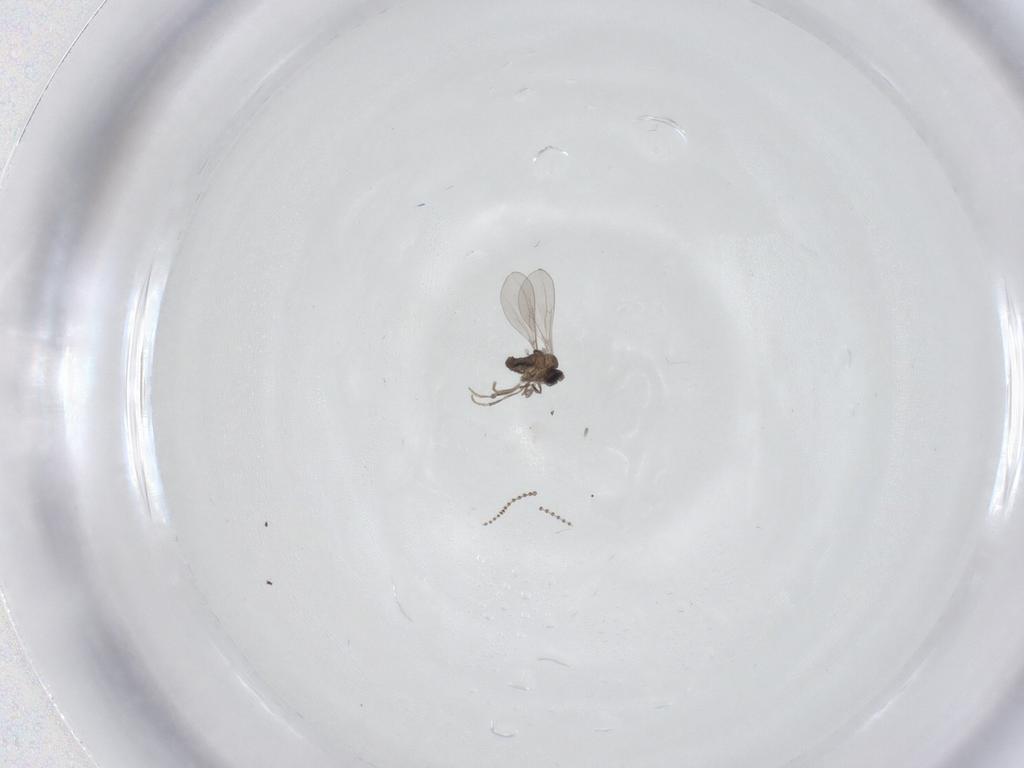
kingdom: Animalia
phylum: Arthropoda
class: Insecta
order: Diptera
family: Cecidomyiidae
